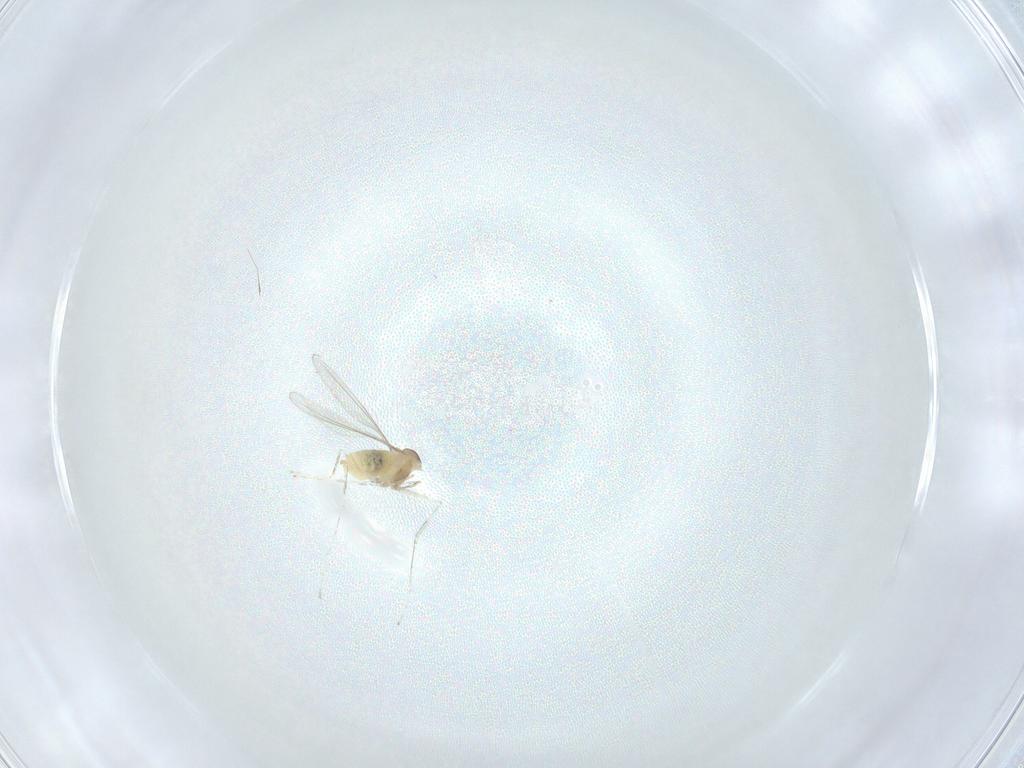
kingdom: Animalia
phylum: Arthropoda
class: Insecta
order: Diptera
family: Cecidomyiidae
